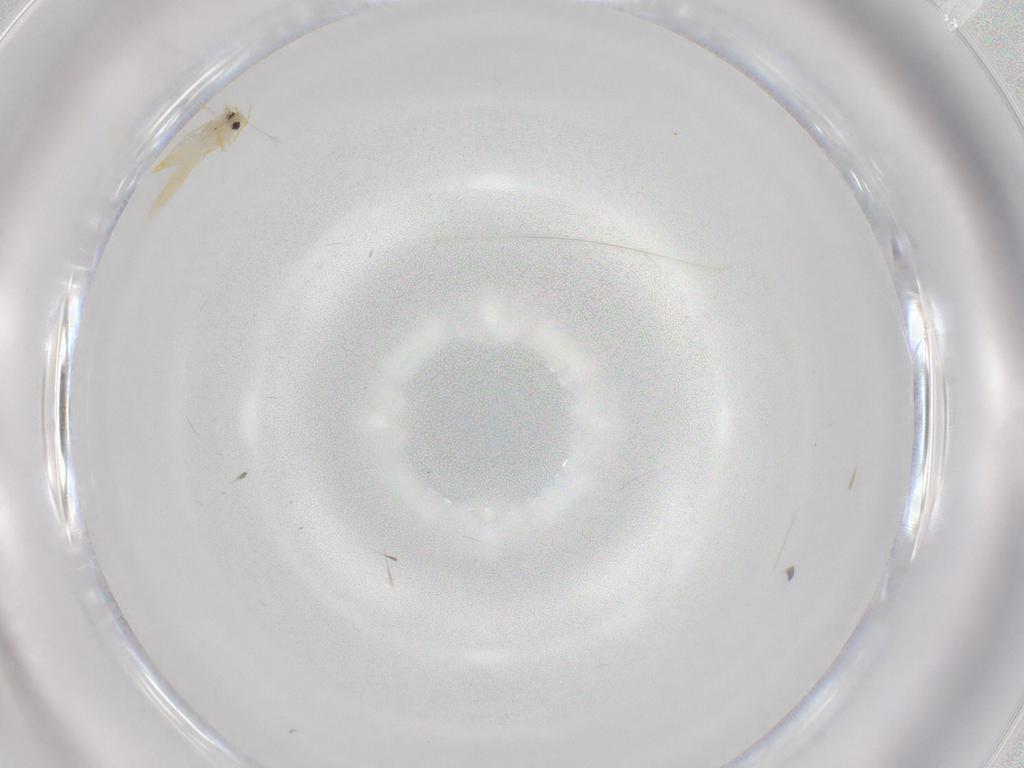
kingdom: Animalia
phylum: Arthropoda
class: Insecta
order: Hemiptera
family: Aleyrodidae
